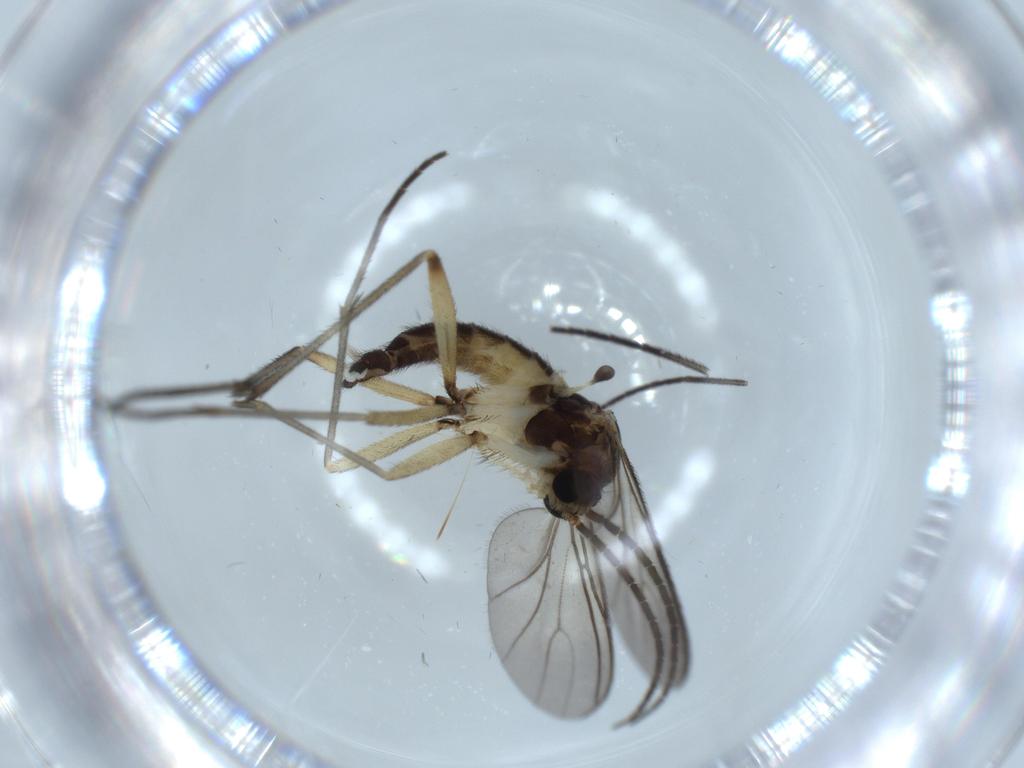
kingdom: Animalia
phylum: Arthropoda
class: Insecta
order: Diptera
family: Sciaridae
